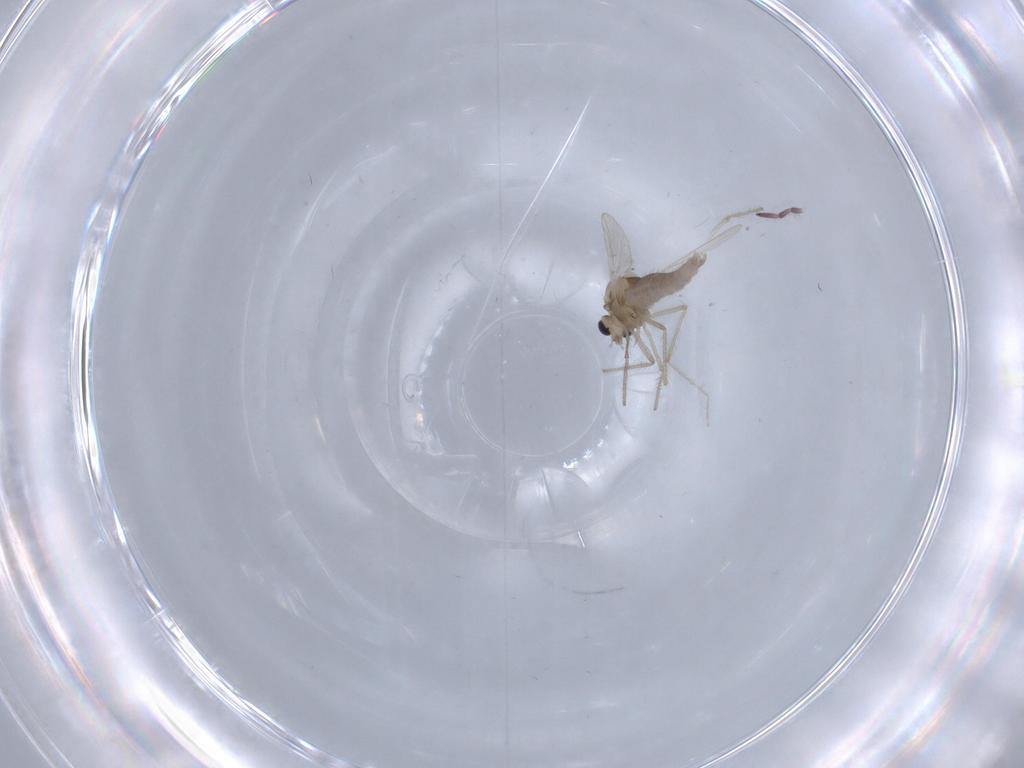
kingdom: Animalia
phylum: Arthropoda
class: Insecta
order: Diptera
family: Chironomidae
